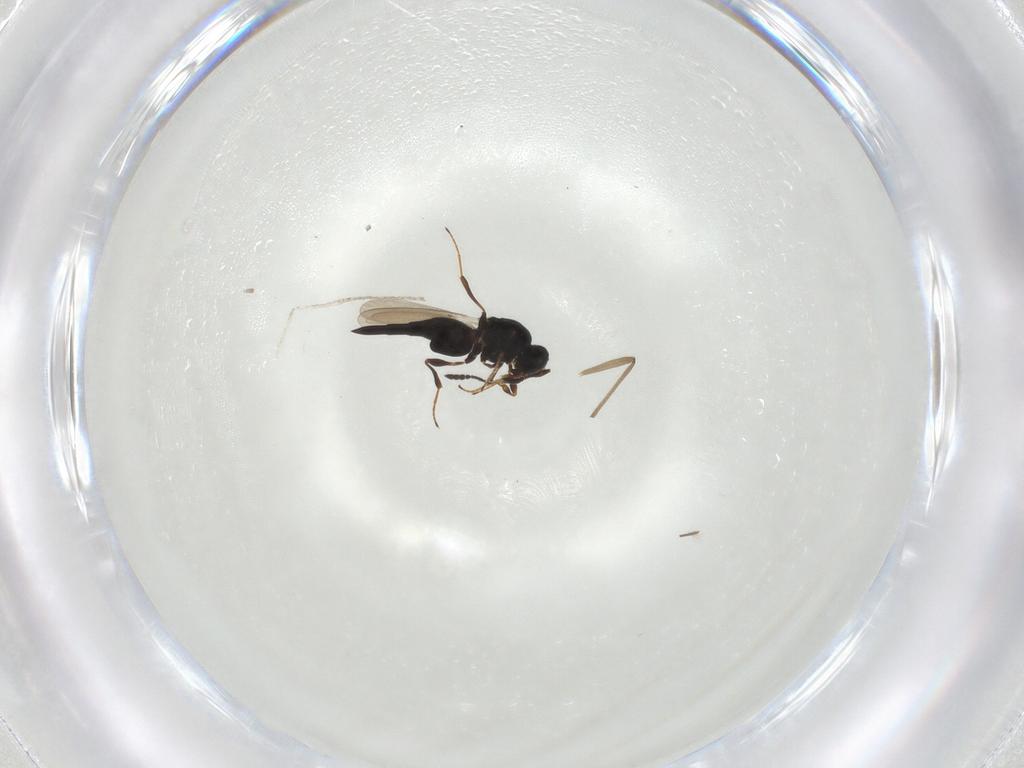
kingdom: Animalia
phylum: Arthropoda
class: Insecta
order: Hymenoptera
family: Platygastridae
